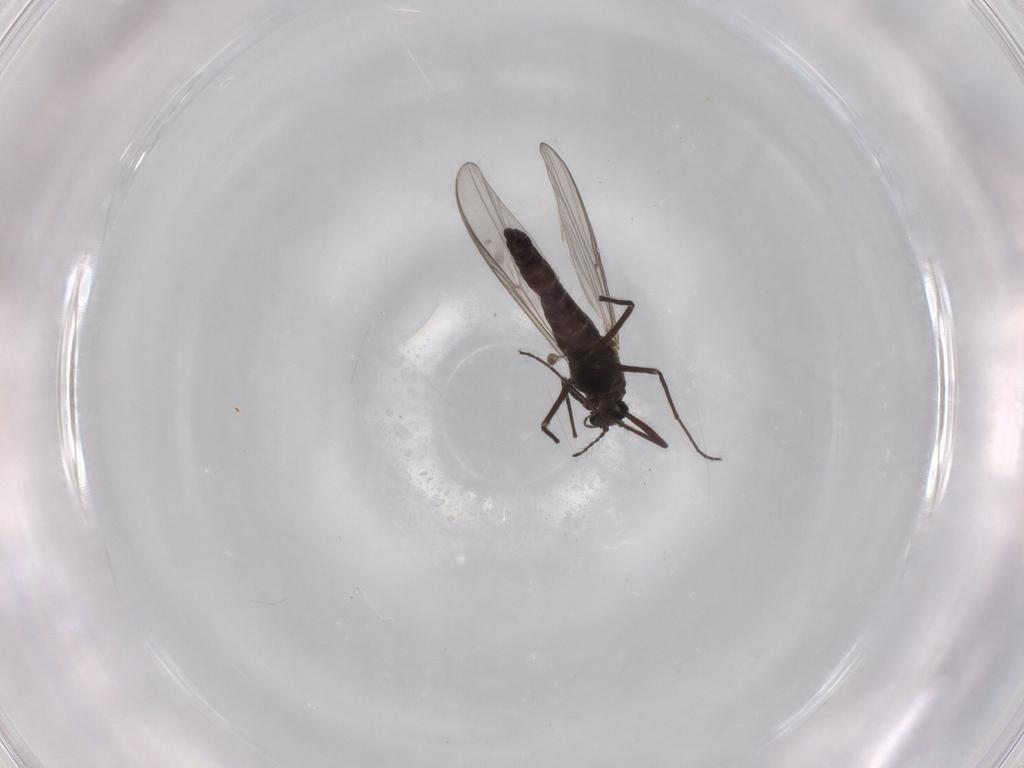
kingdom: Animalia
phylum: Arthropoda
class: Insecta
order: Diptera
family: Chironomidae
